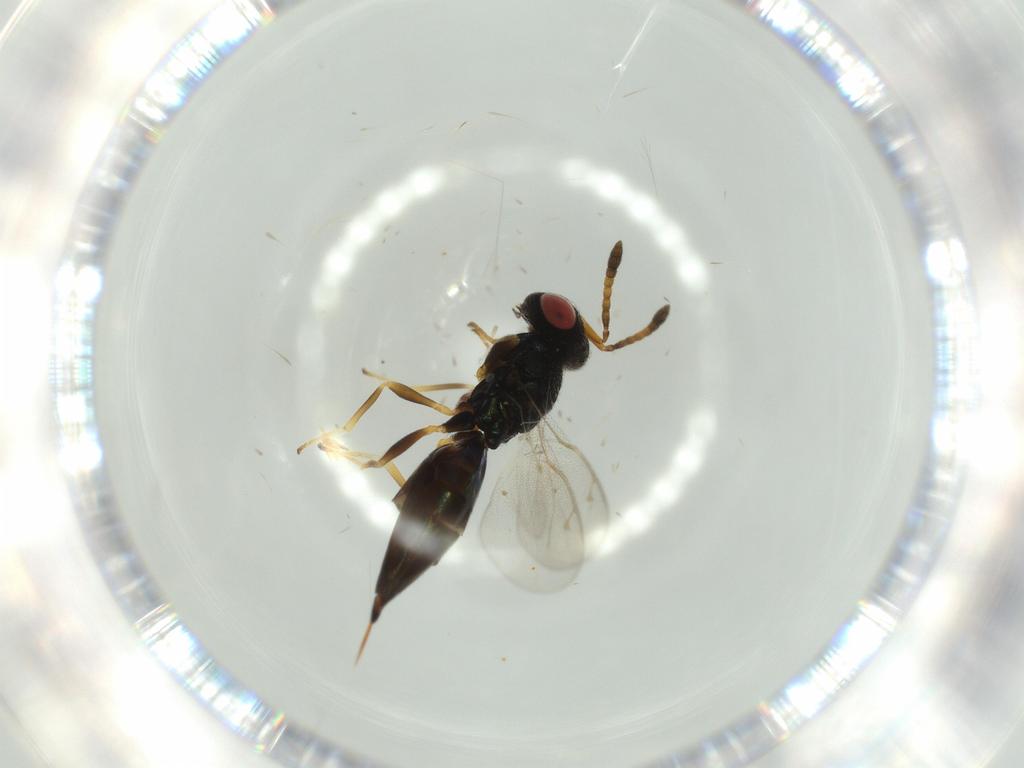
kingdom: Animalia
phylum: Arthropoda
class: Insecta
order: Hymenoptera
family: Pteromalidae
